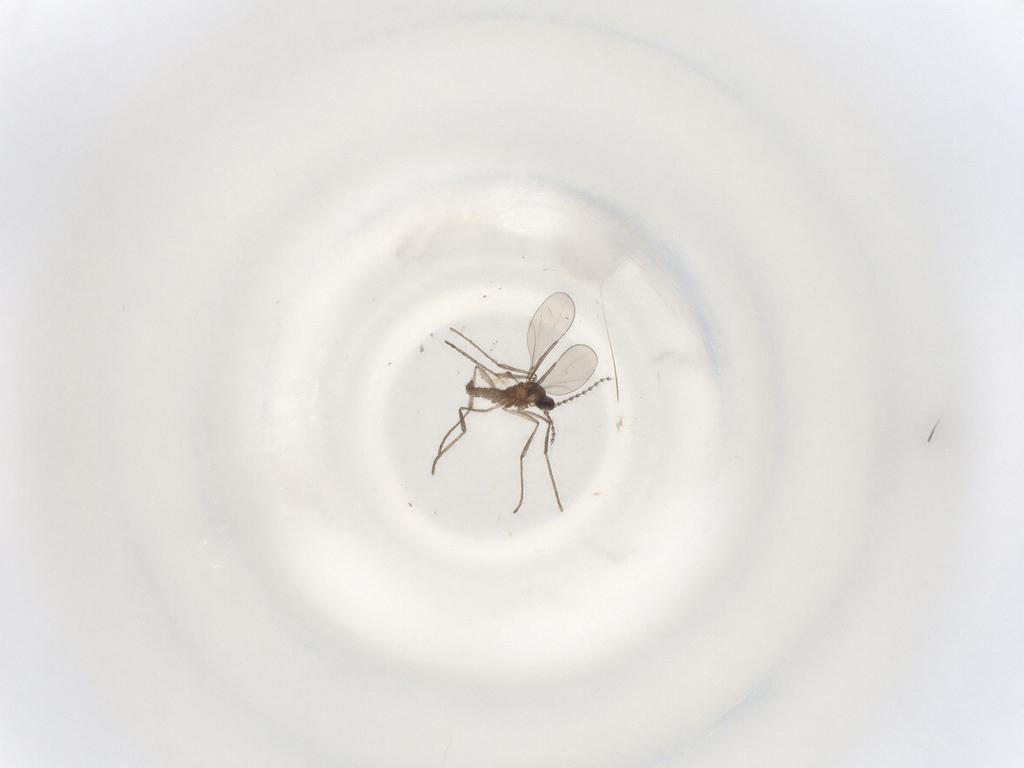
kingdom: Animalia
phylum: Arthropoda
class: Insecta
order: Diptera
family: Cecidomyiidae
